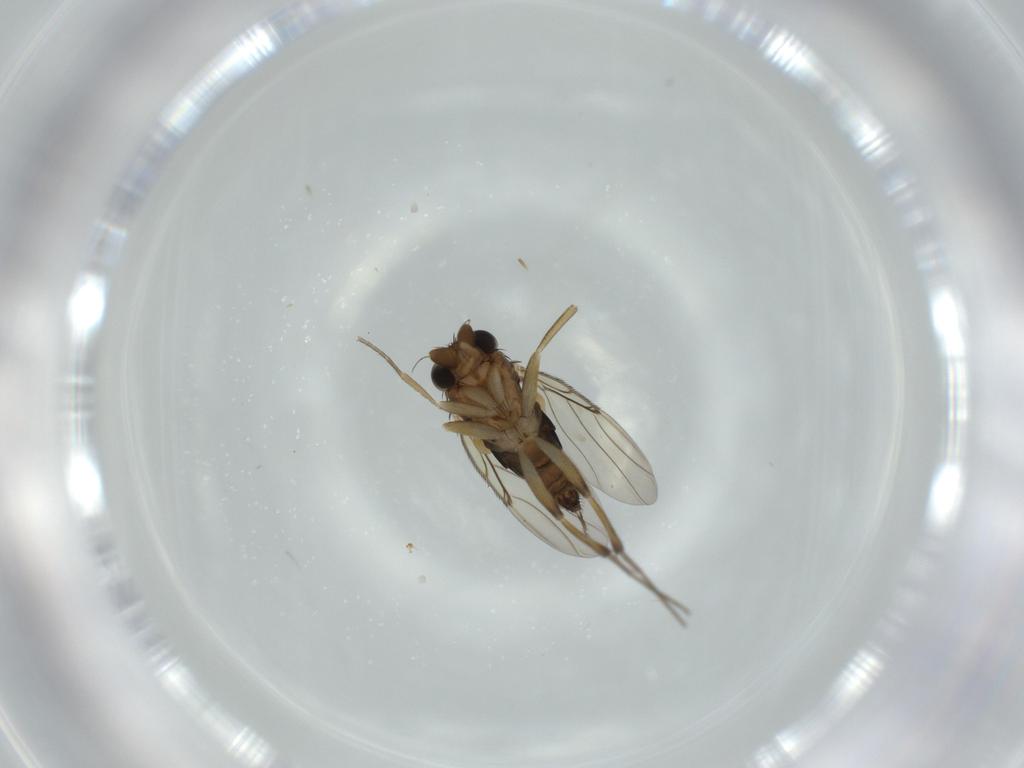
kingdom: Animalia
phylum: Arthropoda
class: Insecta
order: Diptera
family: Phoridae
